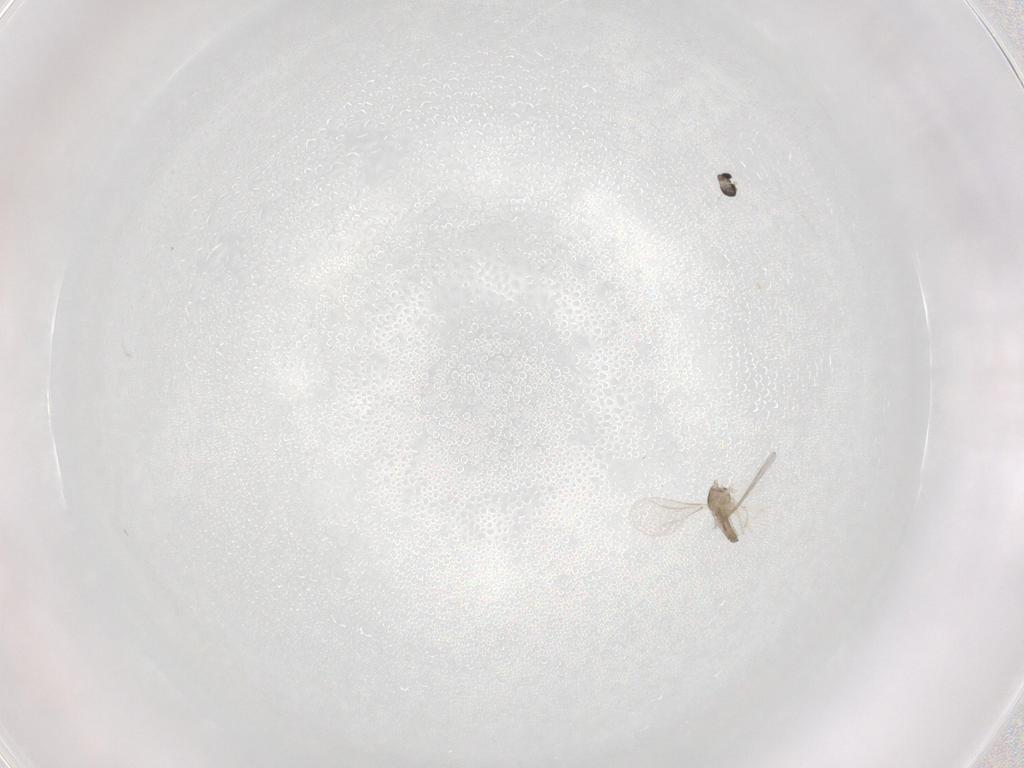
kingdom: Animalia
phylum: Arthropoda
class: Insecta
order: Diptera
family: Cecidomyiidae
